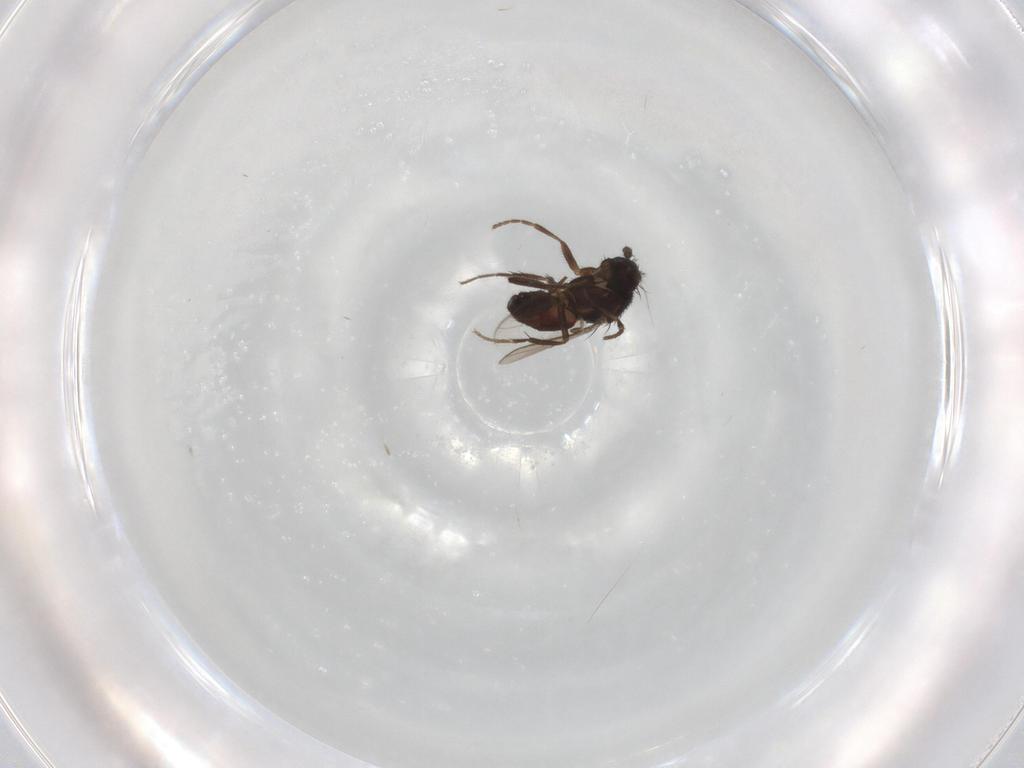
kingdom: Animalia
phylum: Arthropoda
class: Insecta
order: Diptera
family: Sphaeroceridae
